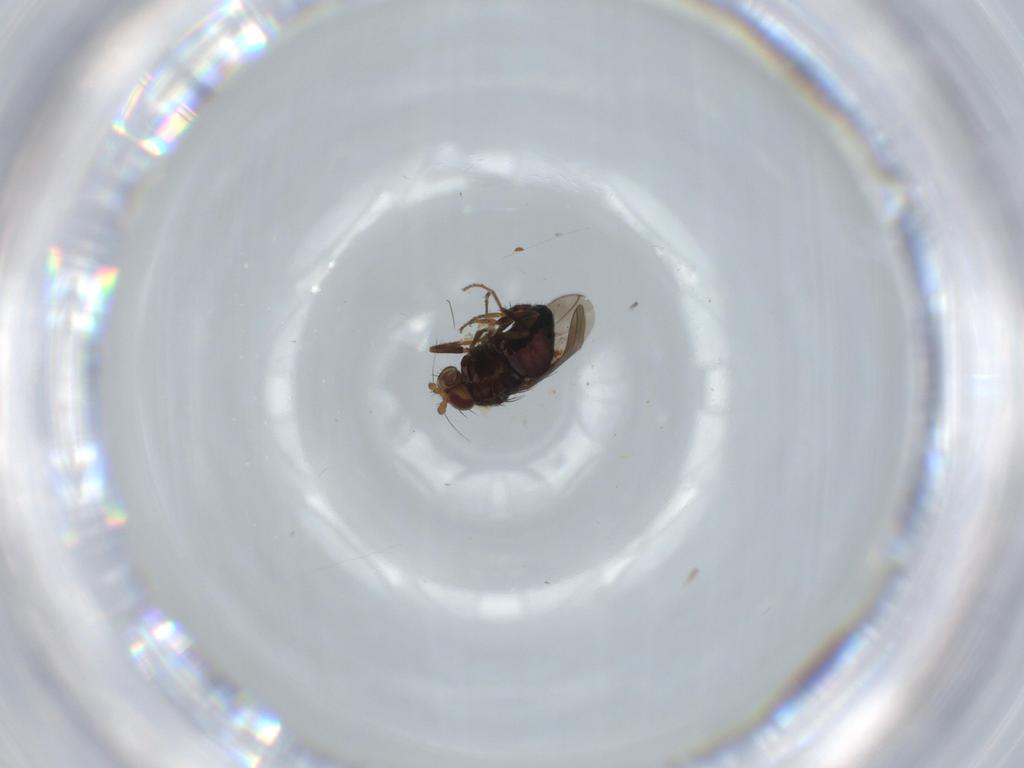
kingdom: Animalia
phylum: Arthropoda
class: Insecta
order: Diptera
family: Sphaeroceridae
